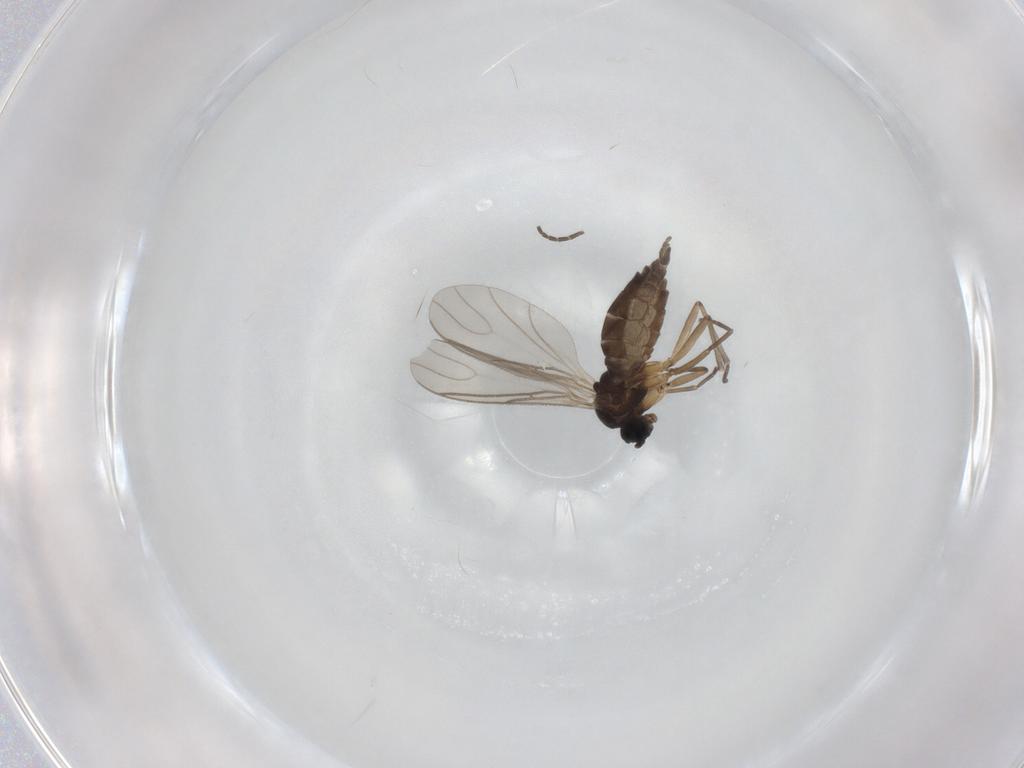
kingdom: Animalia
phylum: Arthropoda
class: Insecta
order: Diptera
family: Sciaridae
